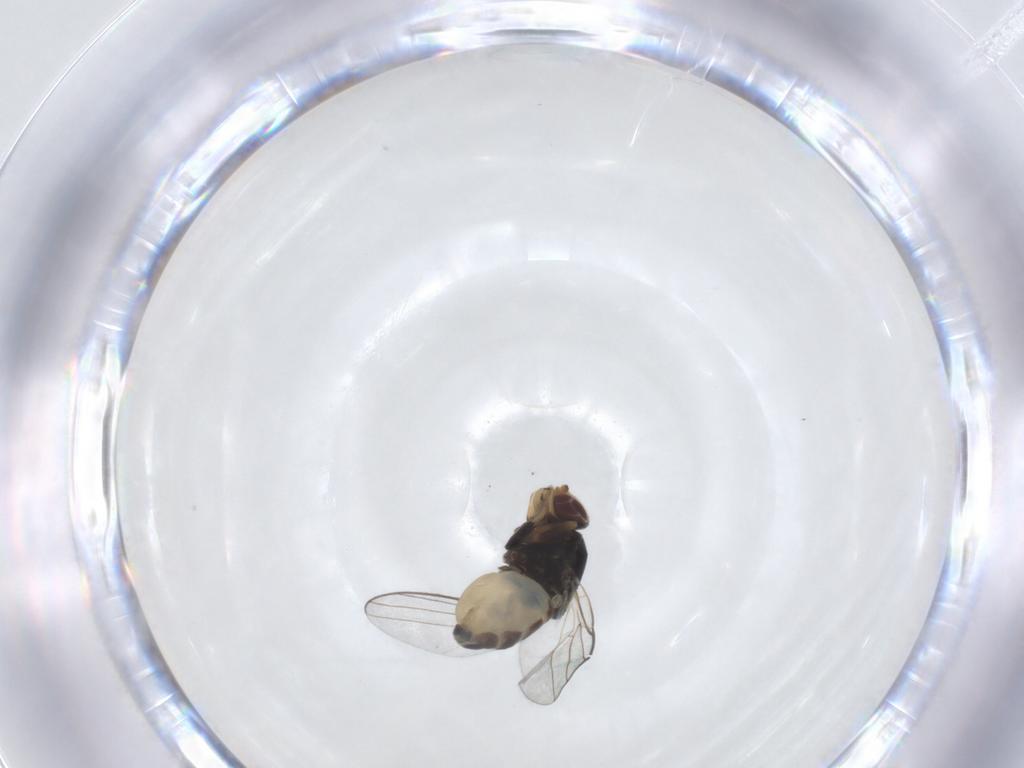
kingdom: Animalia
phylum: Arthropoda
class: Insecta
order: Diptera
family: Chloropidae
